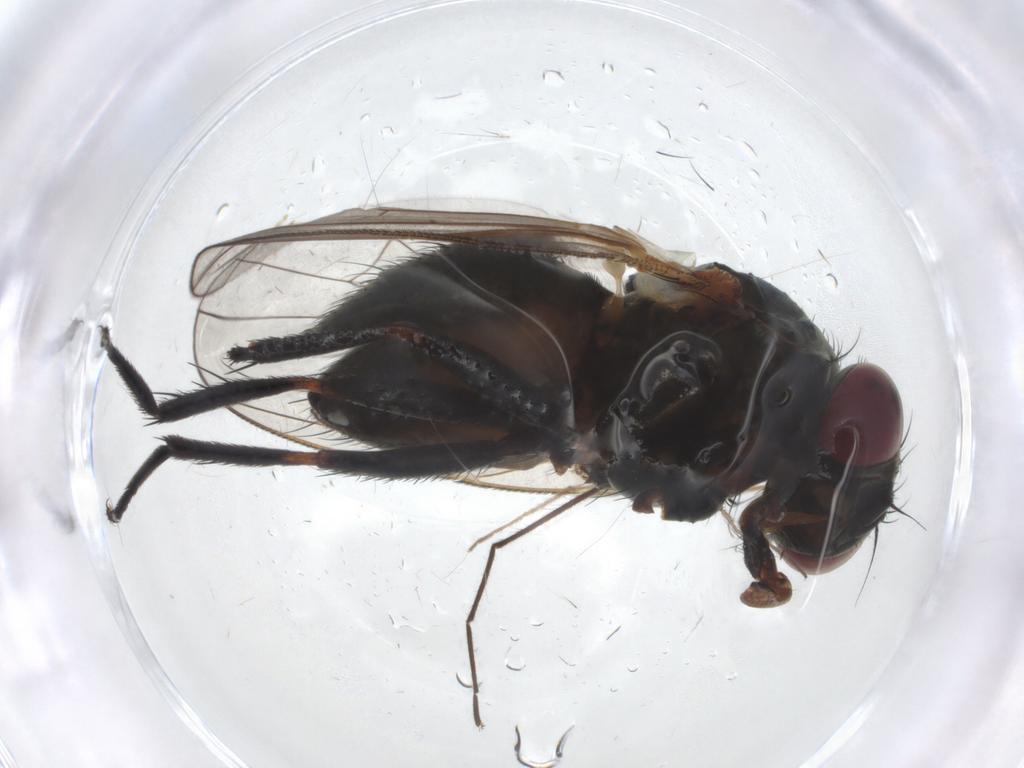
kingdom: Animalia
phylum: Arthropoda
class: Insecta
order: Diptera
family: Fannia
